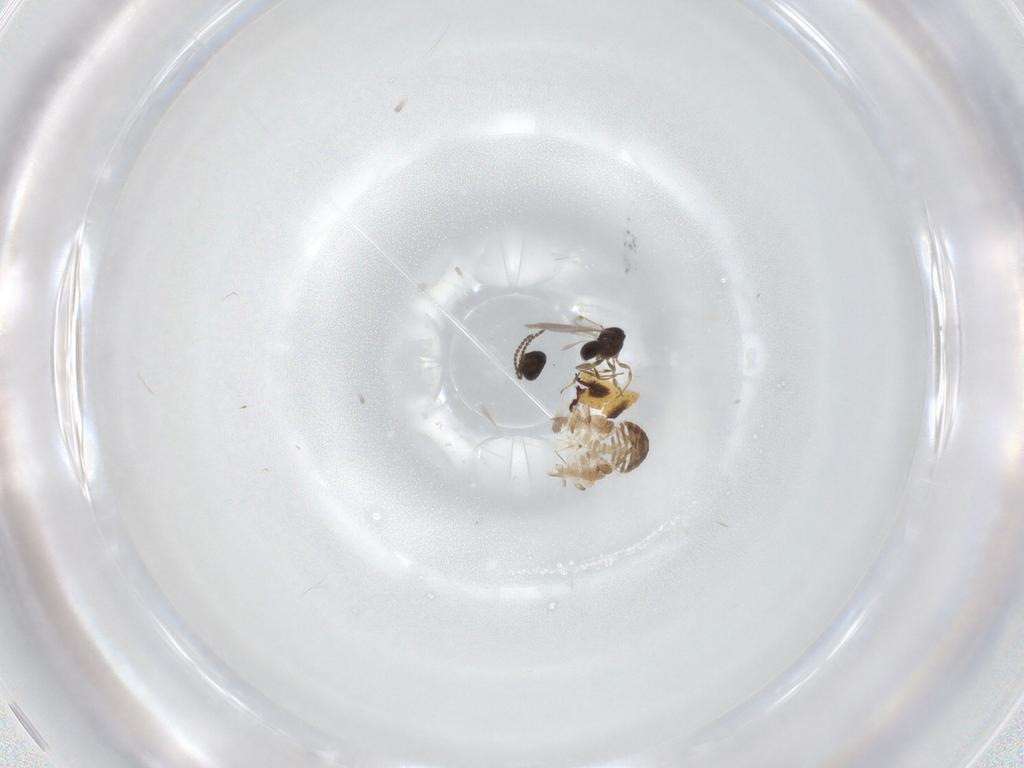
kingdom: Animalia
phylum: Arthropoda
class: Insecta
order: Hymenoptera
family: Scelionidae
